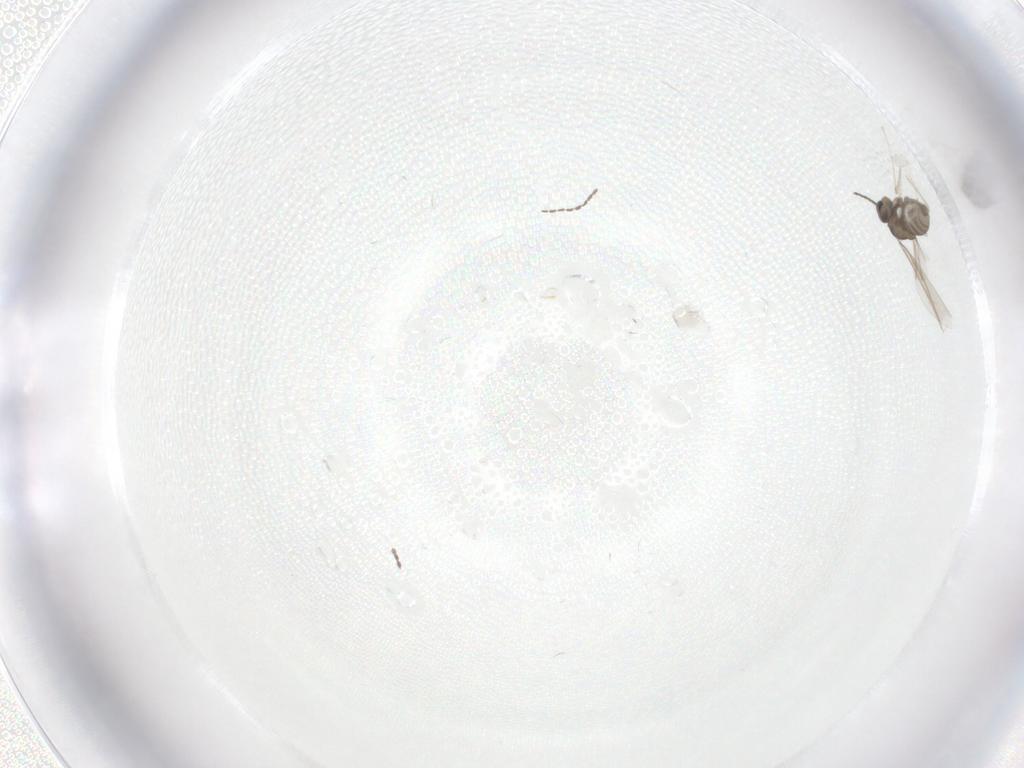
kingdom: Animalia
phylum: Arthropoda
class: Insecta
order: Diptera
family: Cecidomyiidae
